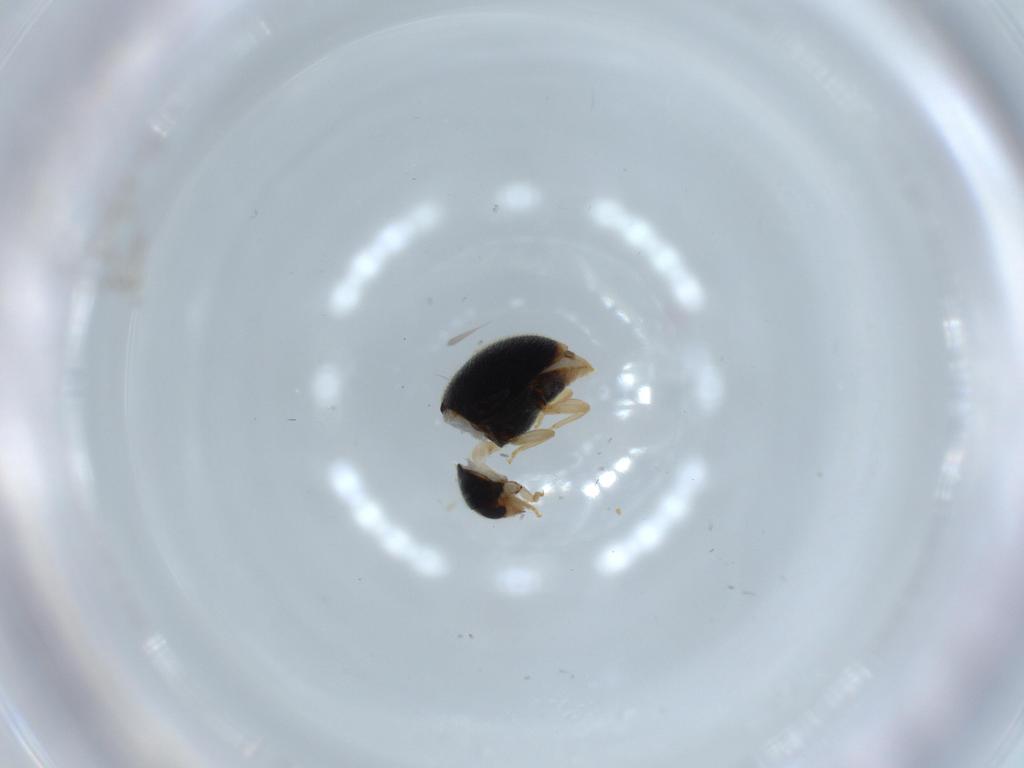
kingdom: Animalia
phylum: Arthropoda
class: Insecta
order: Coleoptera
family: Coccinellidae
